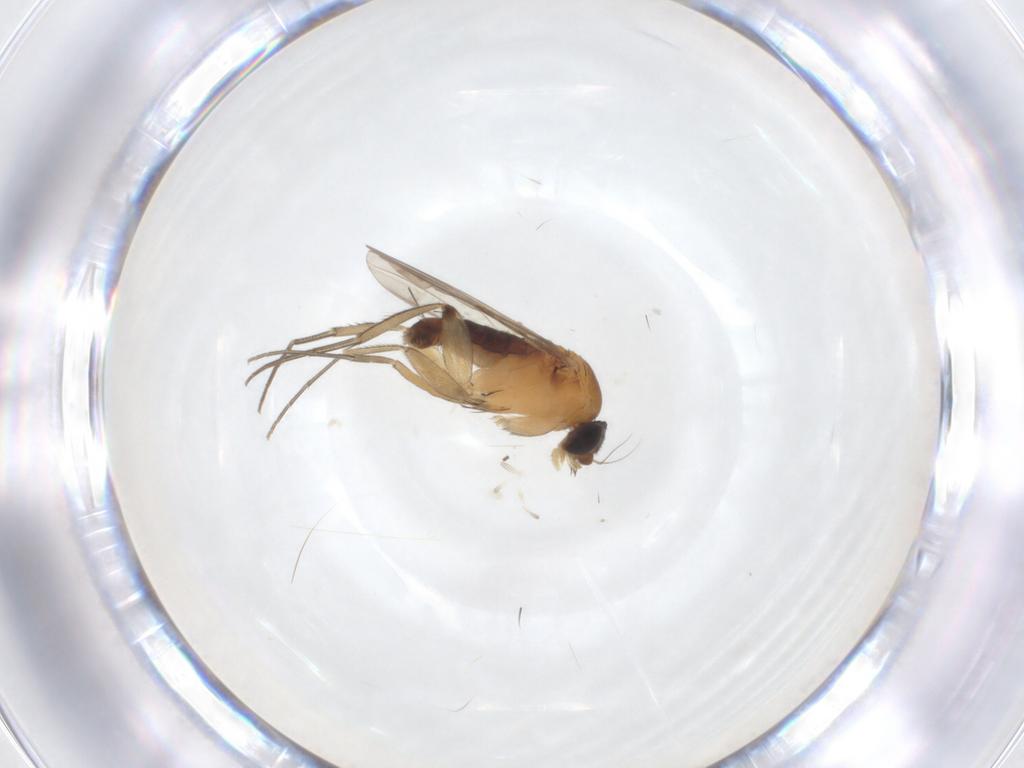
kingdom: Animalia
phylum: Arthropoda
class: Insecta
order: Diptera
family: Phoridae
